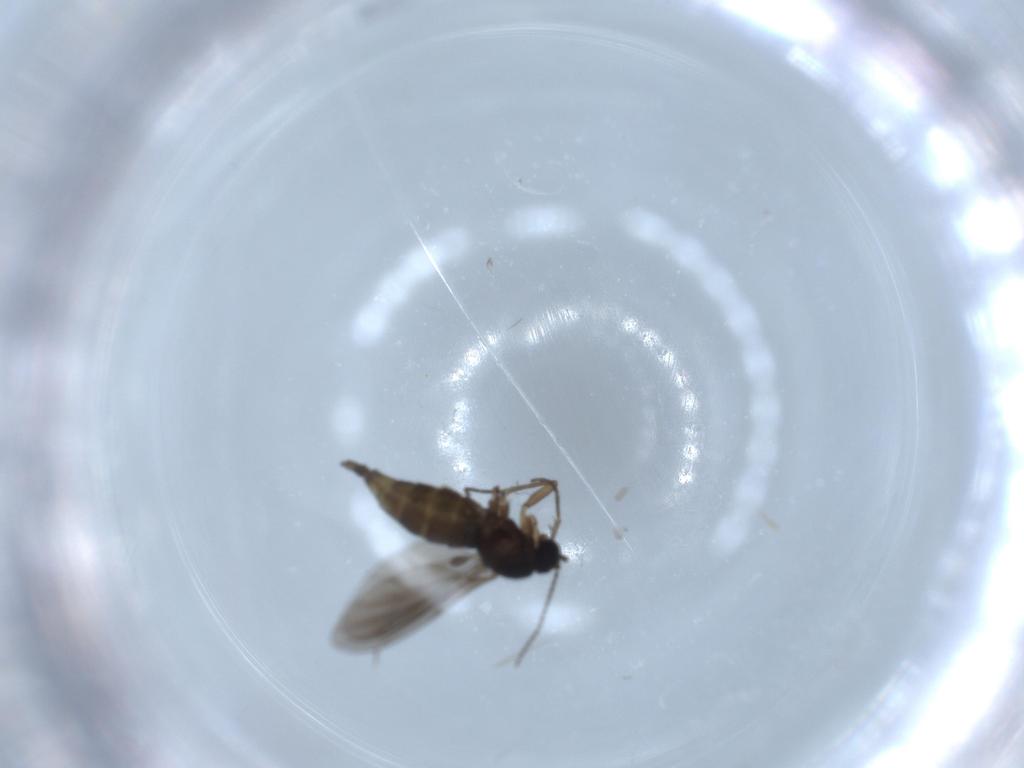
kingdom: Animalia
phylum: Arthropoda
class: Insecta
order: Diptera
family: Sciaridae
